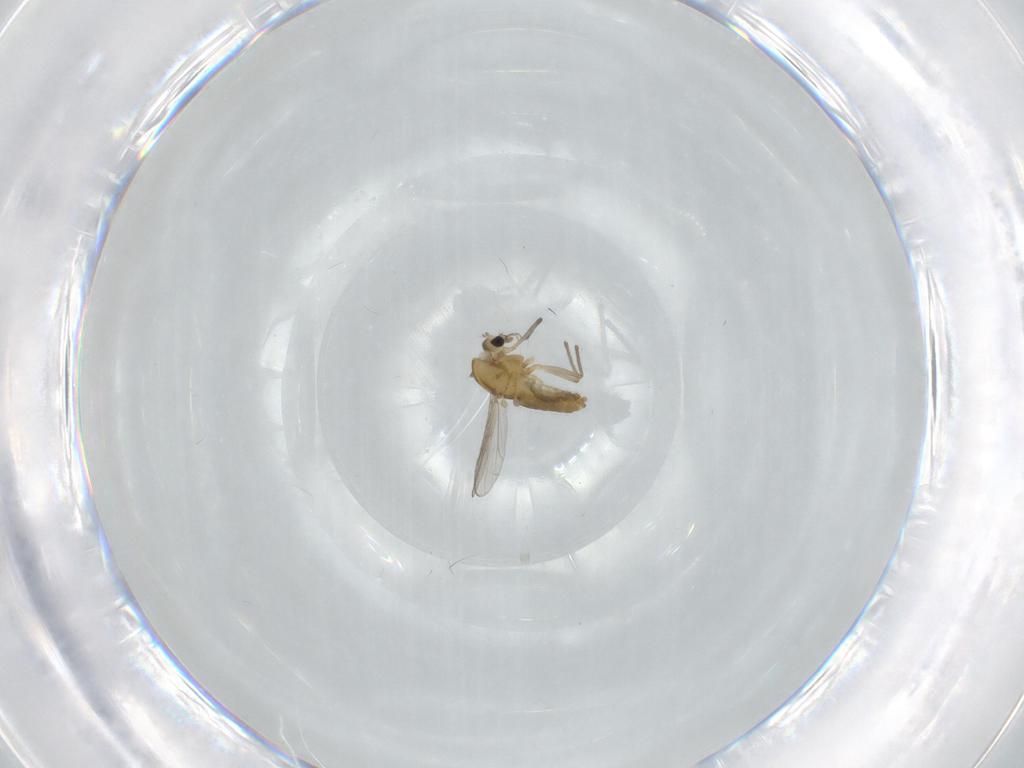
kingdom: Animalia
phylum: Arthropoda
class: Insecta
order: Diptera
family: Chironomidae
